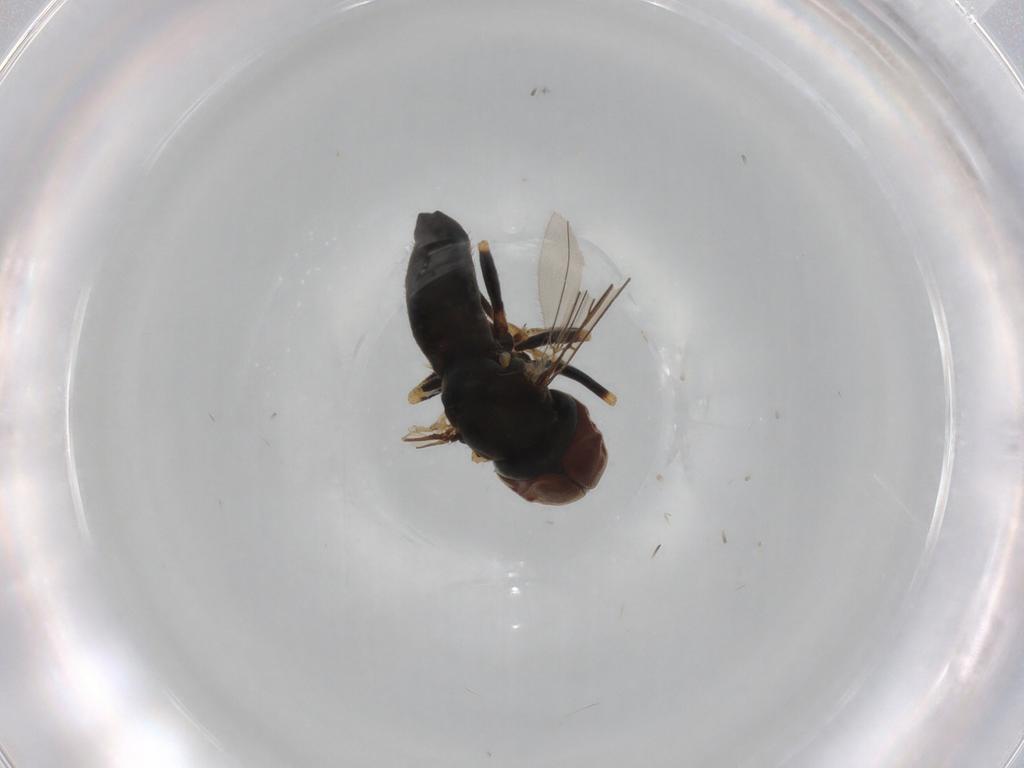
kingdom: Animalia
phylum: Arthropoda
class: Insecta
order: Diptera
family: Pipunculidae
